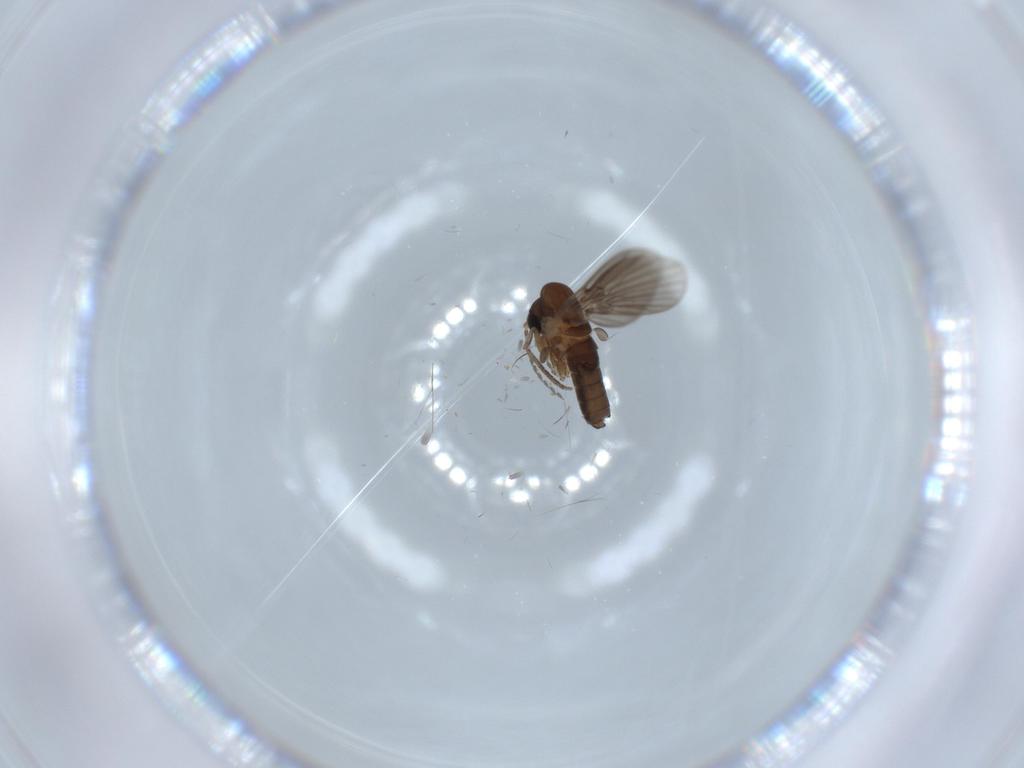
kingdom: Animalia
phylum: Arthropoda
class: Insecta
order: Diptera
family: Psychodidae
